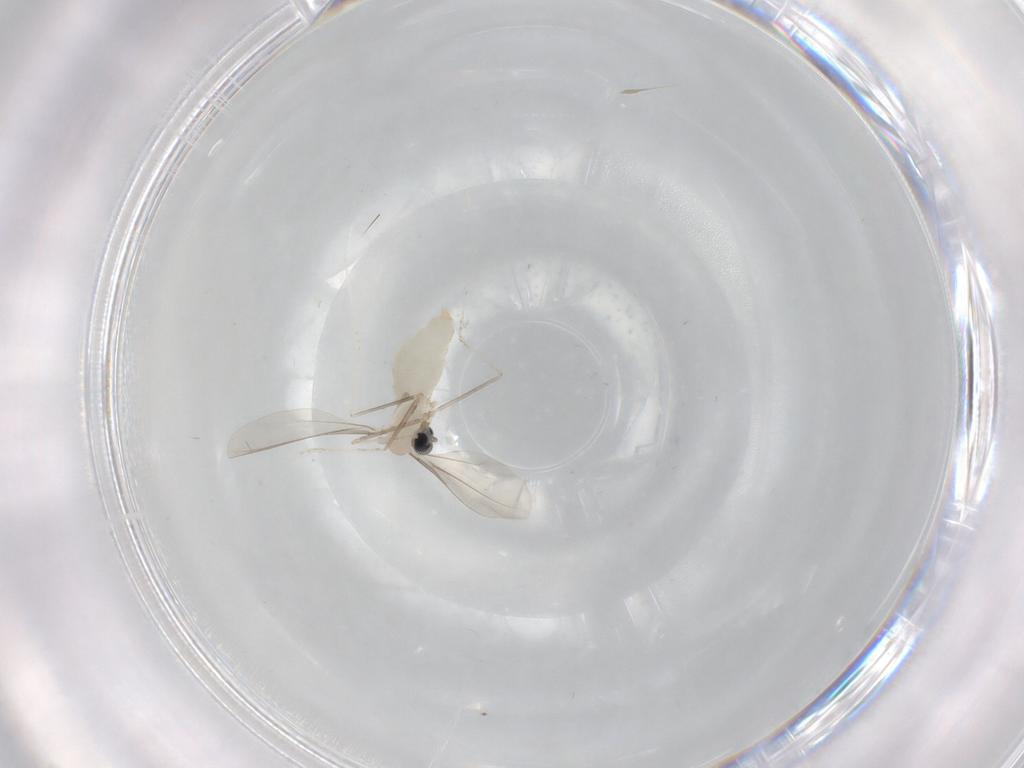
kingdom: Animalia
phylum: Arthropoda
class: Insecta
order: Diptera
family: Cecidomyiidae
